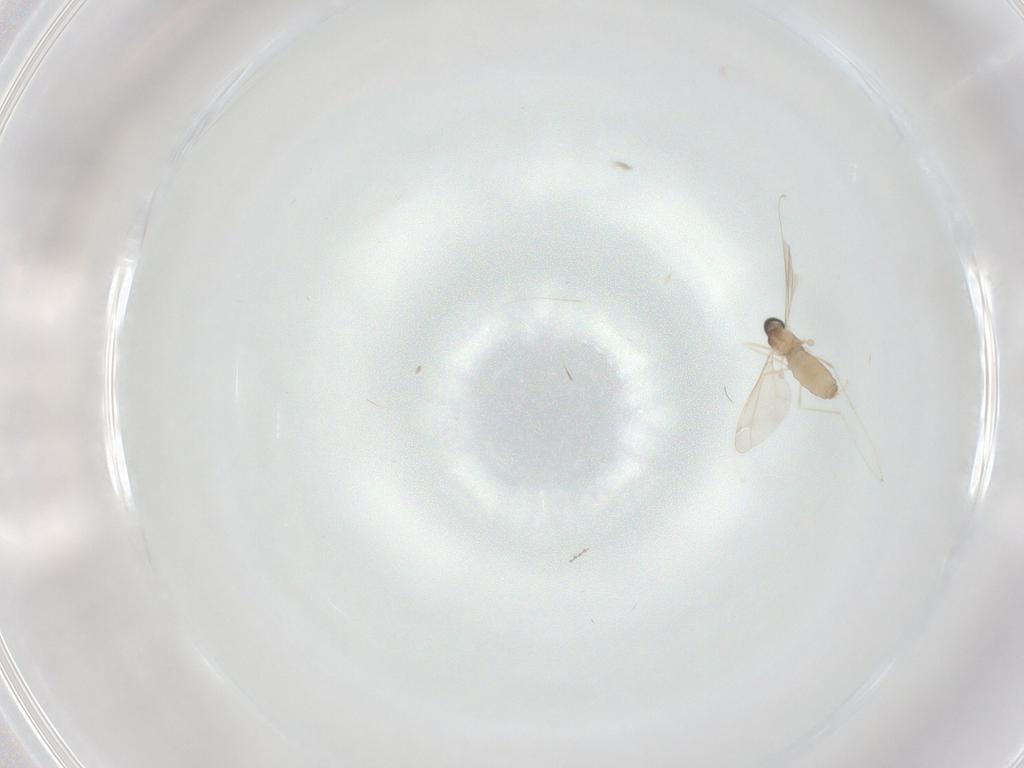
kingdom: Animalia
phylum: Arthropoda
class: Insecta
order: Diptera
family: Cecidomyiidae
